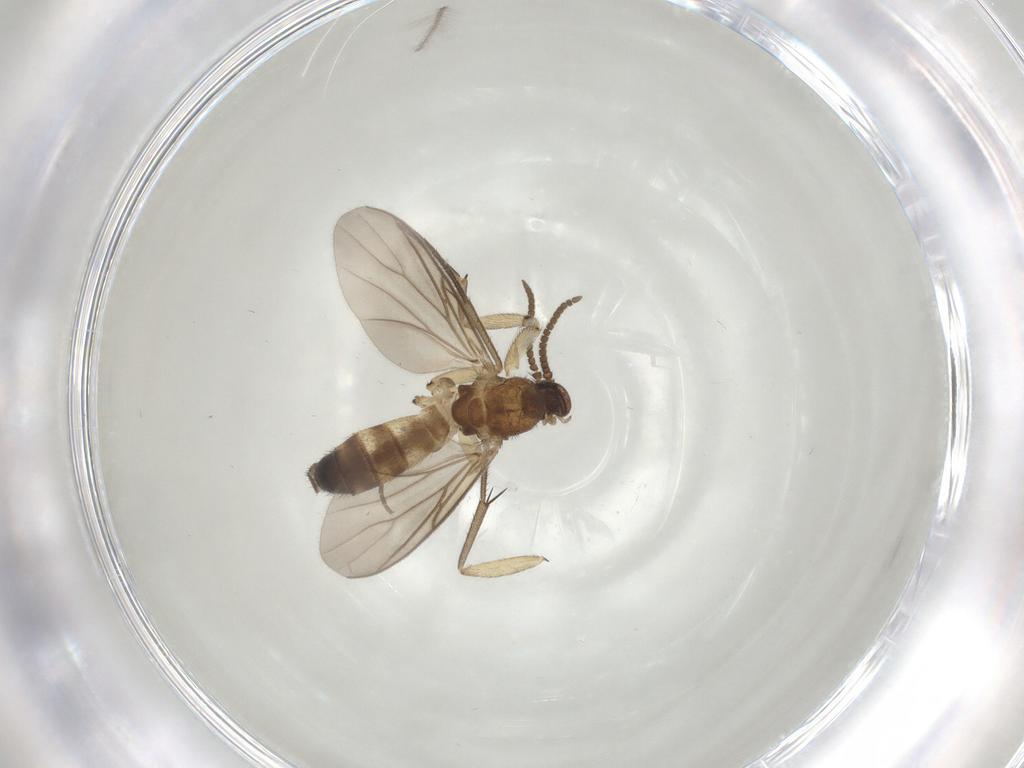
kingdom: Animalia
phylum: Arthropoda
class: Insecta
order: Diptera
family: Mycetophilidae
